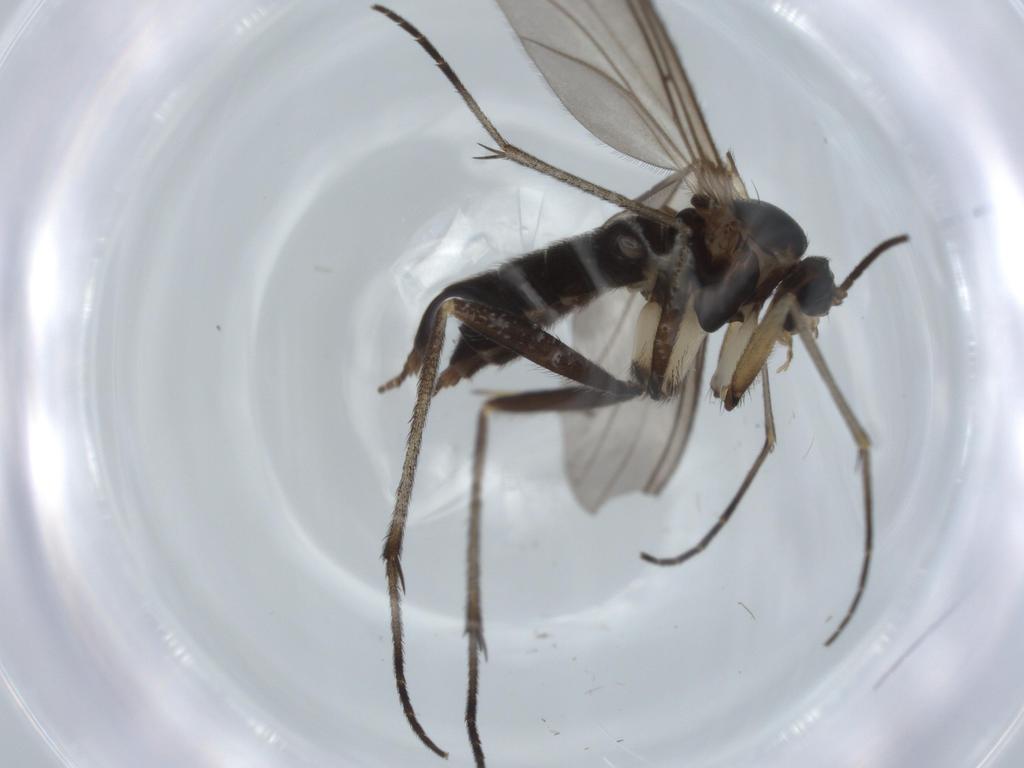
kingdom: Animalia
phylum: Arthropoda
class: Insecta
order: Diptera
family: Sciaridae
